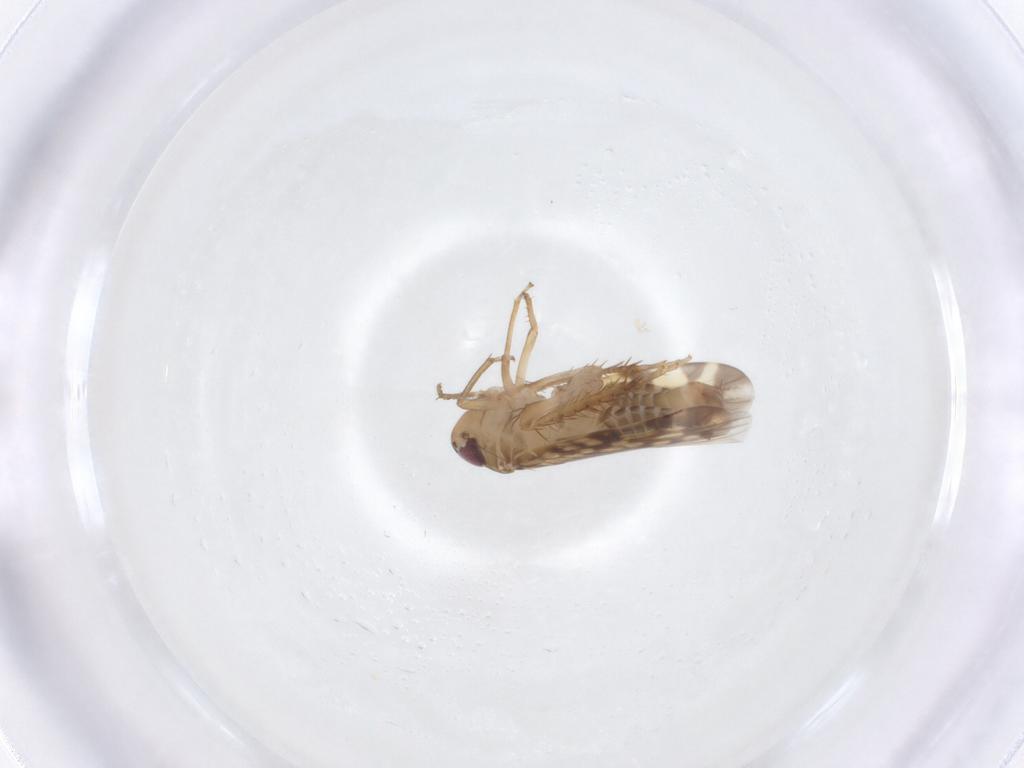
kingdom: Animalia
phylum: Arthropoda
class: Insecta
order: Hemiptera
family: Cicadellidae
